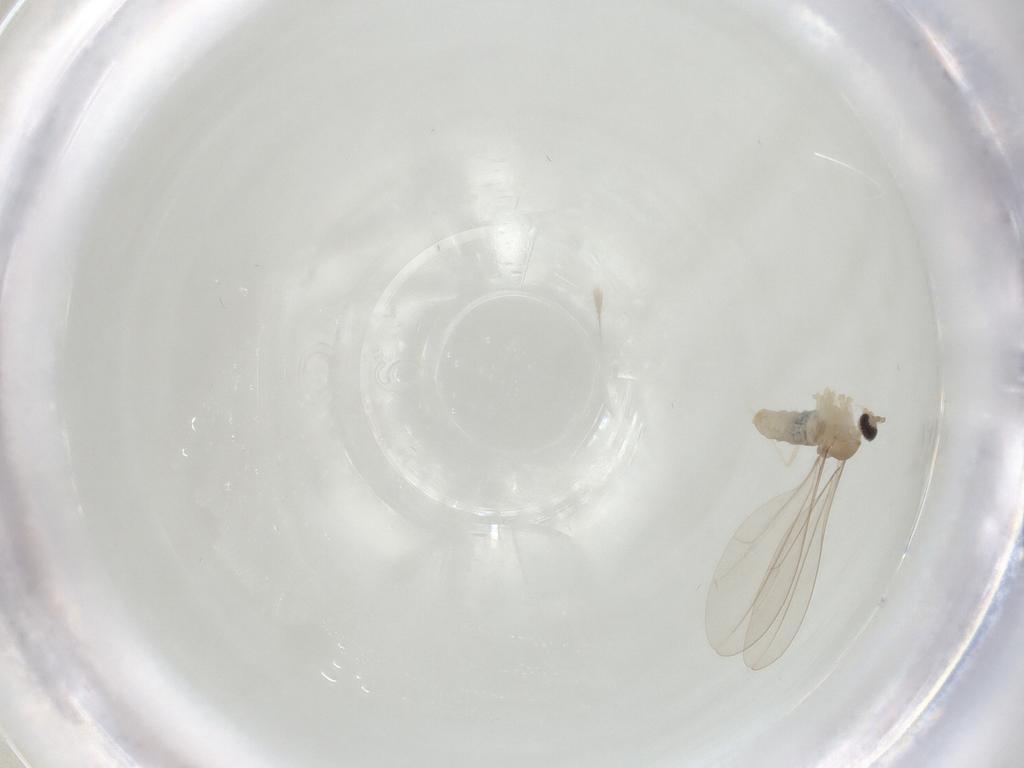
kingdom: Animalia
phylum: Arthropoda
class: Insecta
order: Diptera
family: Cecidomyiidae
